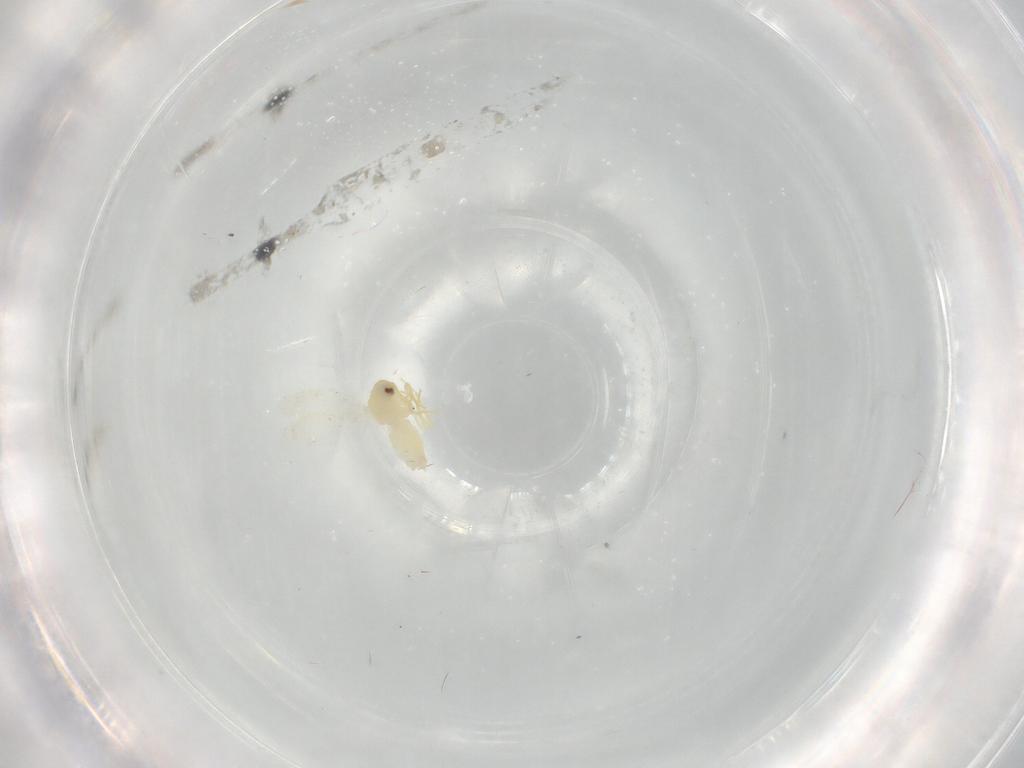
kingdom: Animalia
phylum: Arthropoda
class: Insecta
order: Hemiptera
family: Aleyrodidae
